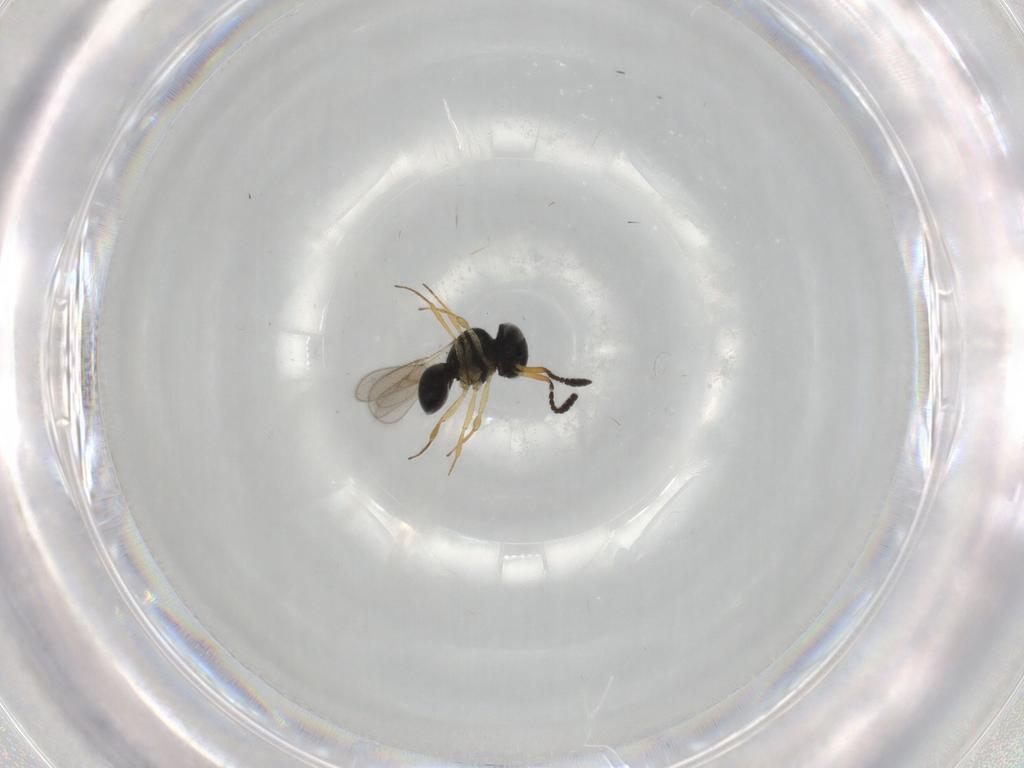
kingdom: Animalia
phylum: Arthropoda
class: Insecta
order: Hymenoptera
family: Scelionidae
